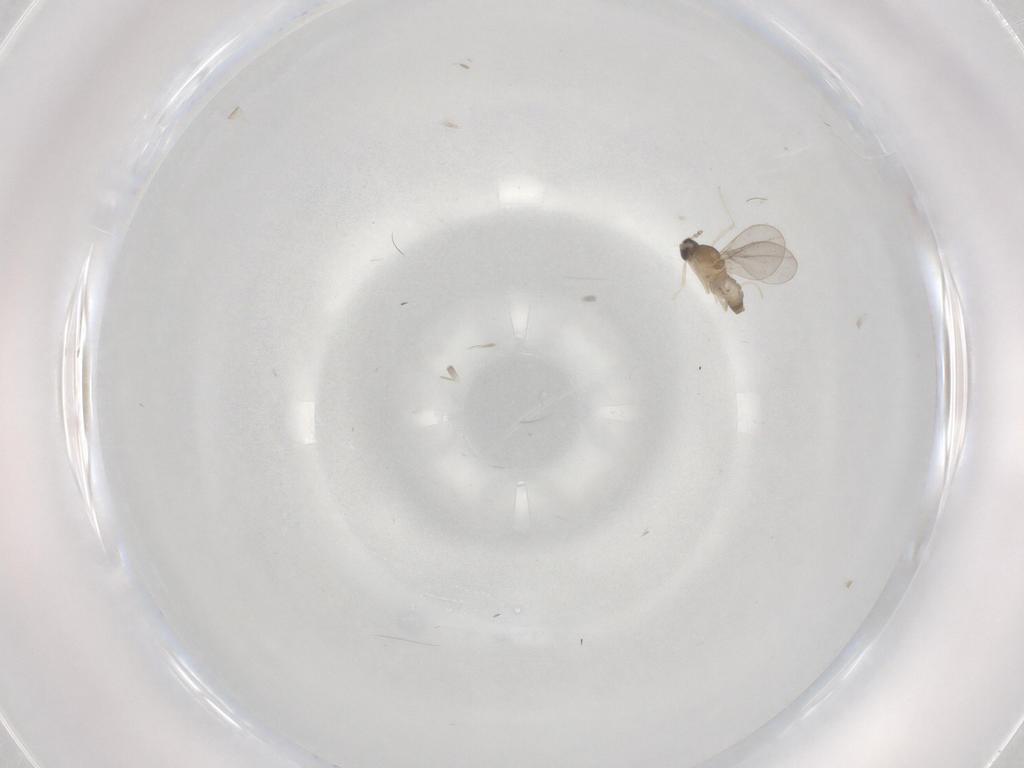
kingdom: Animalia
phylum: Arthropoda
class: Insecta
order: Diptera
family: Cecidomyiidae
